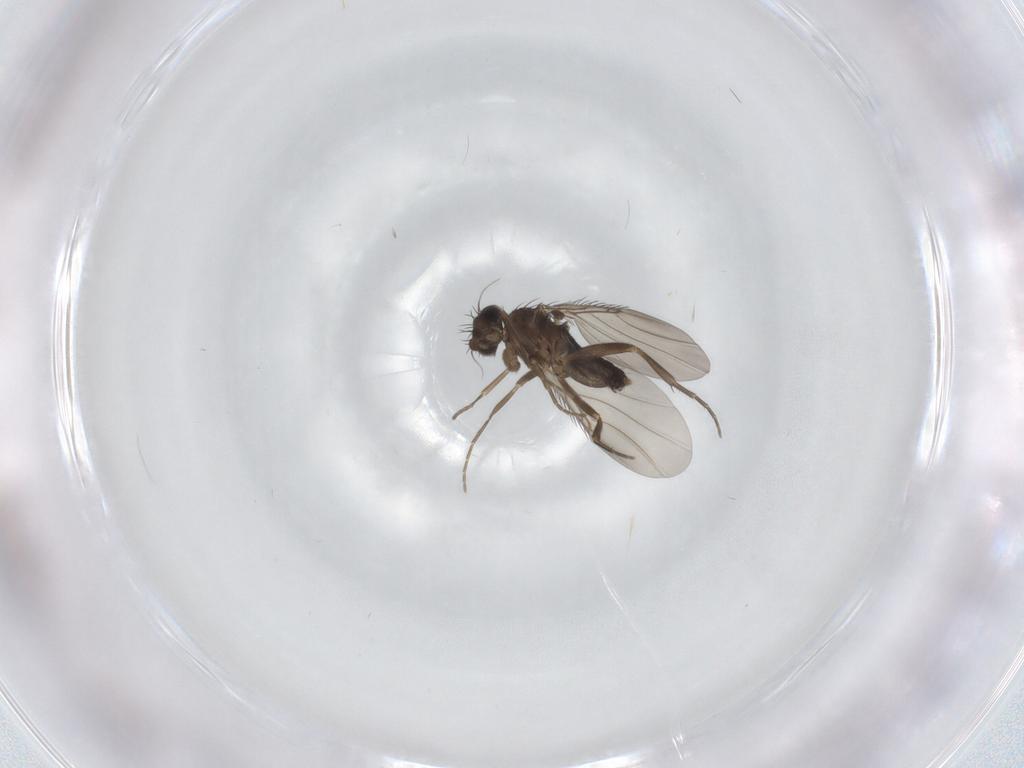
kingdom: Animalia
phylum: Arthropoda
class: Insecta
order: Diptera
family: Phoridae
